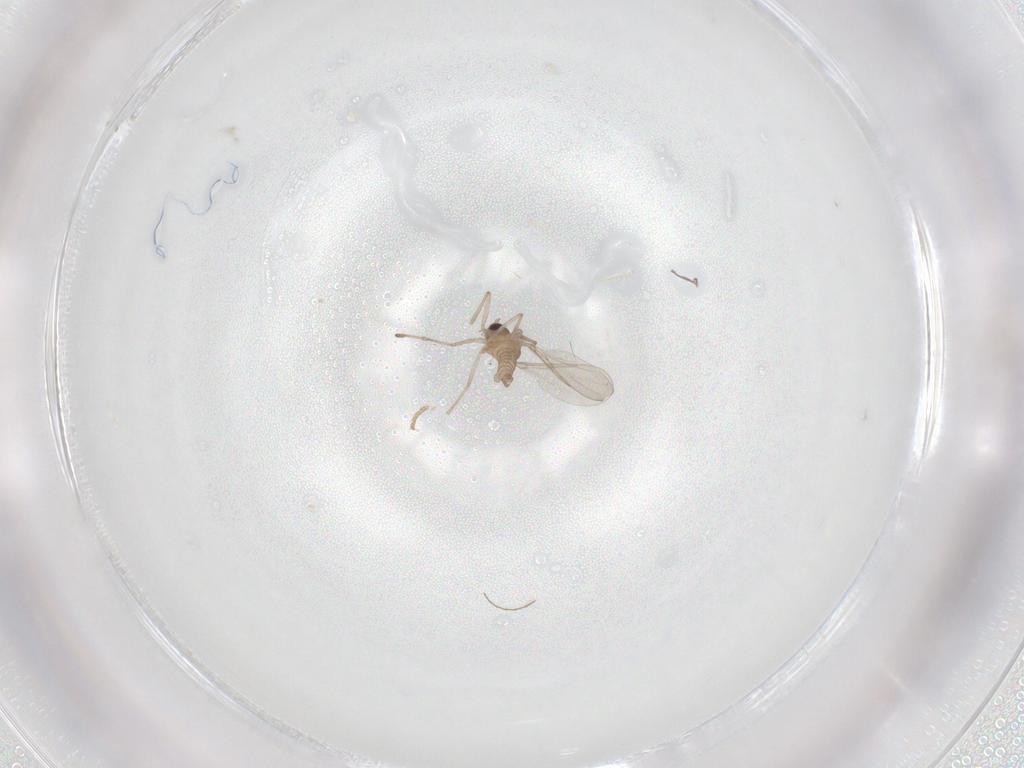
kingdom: Animalia
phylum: Arthropoda
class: Insecta
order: Diptera
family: Cecidomyiidae
